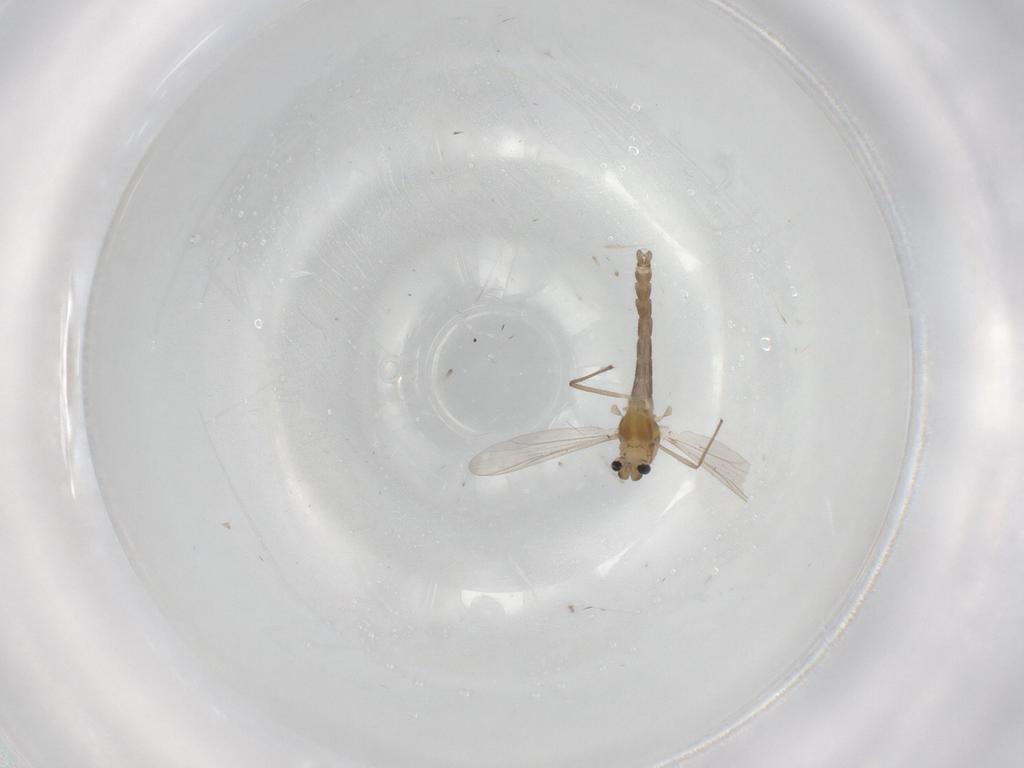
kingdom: Animalia
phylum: Arthropoda
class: Insecta
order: Diptera
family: Chironomidae
